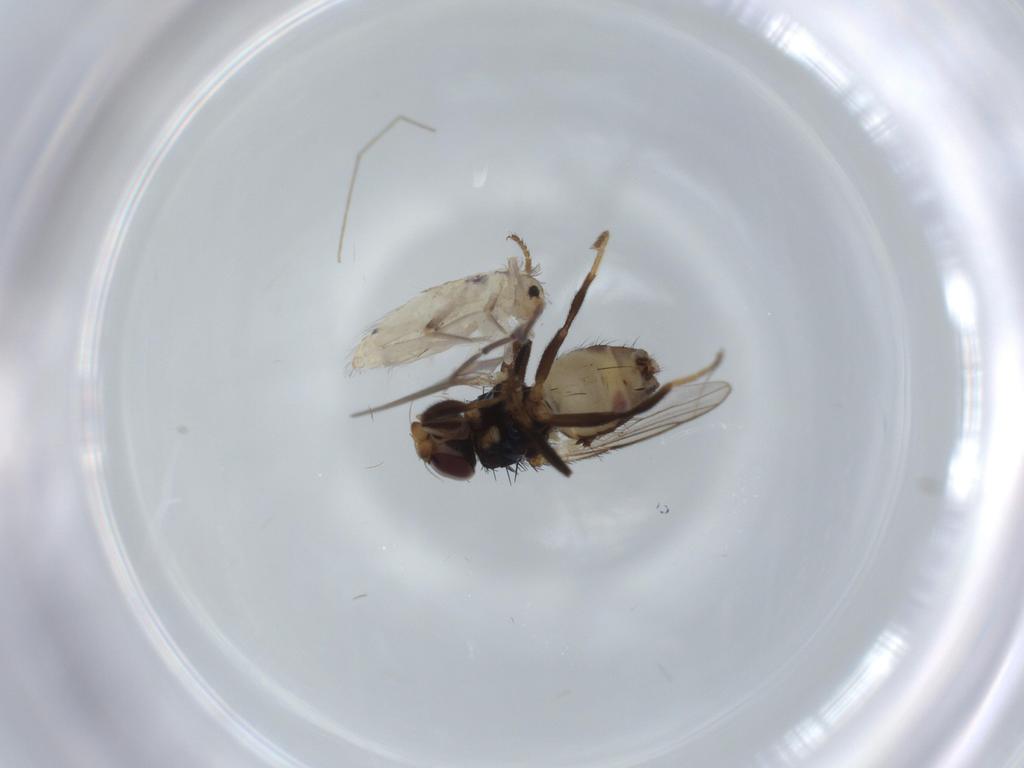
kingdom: Animalia
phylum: Arthropoda
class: Collembola
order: Entomobryomorpha
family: Entomobryidae
